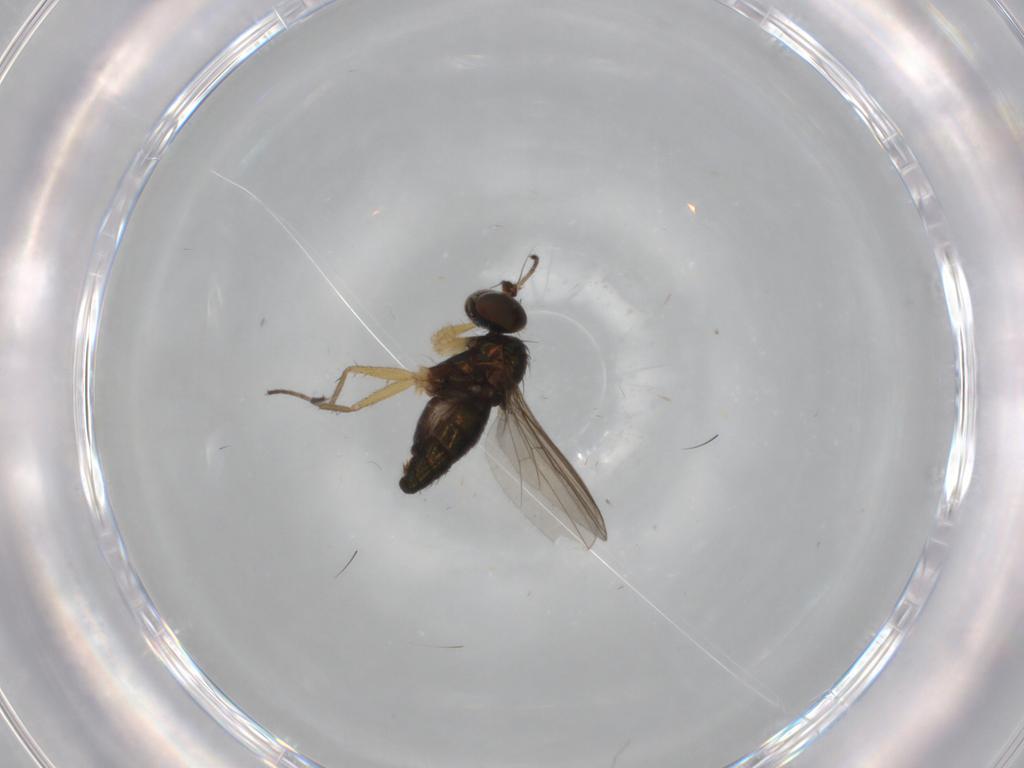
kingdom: Animalia
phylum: Arthropoda
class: Insecta
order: Diptera
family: Dolichopodidae
